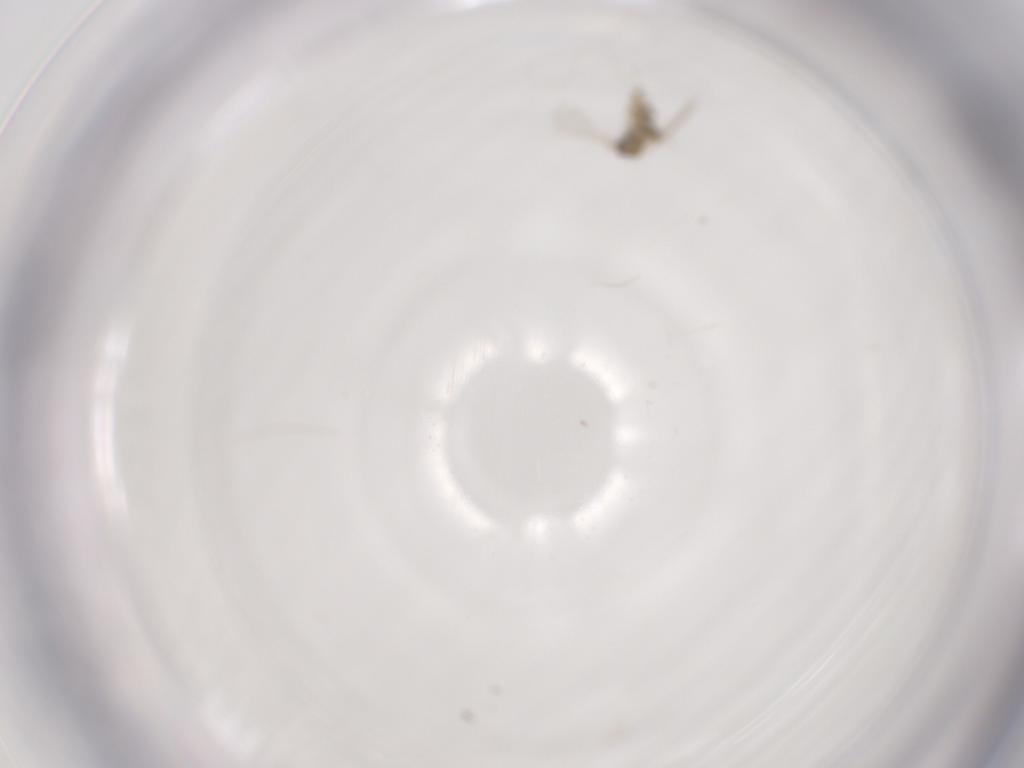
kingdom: Animalia
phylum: Arthropoda
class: Insecta
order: Diptera
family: Cecidomyiidae
